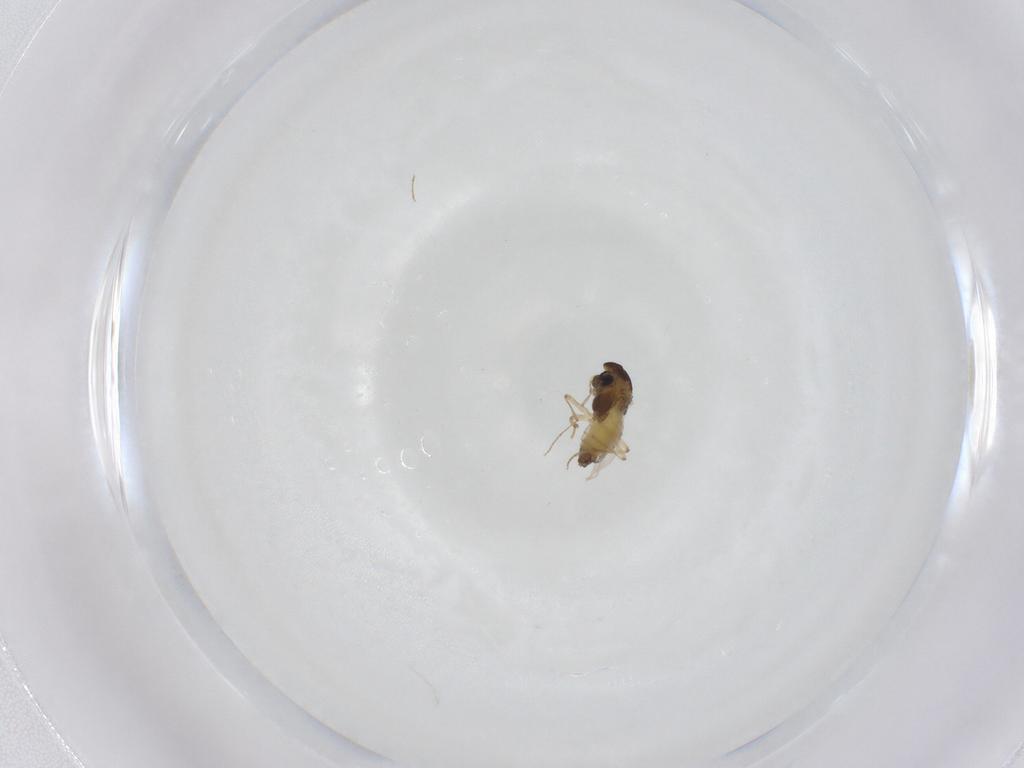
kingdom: Animalia
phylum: Arthropoda
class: Insecta
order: Diptera
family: Chironomidae
